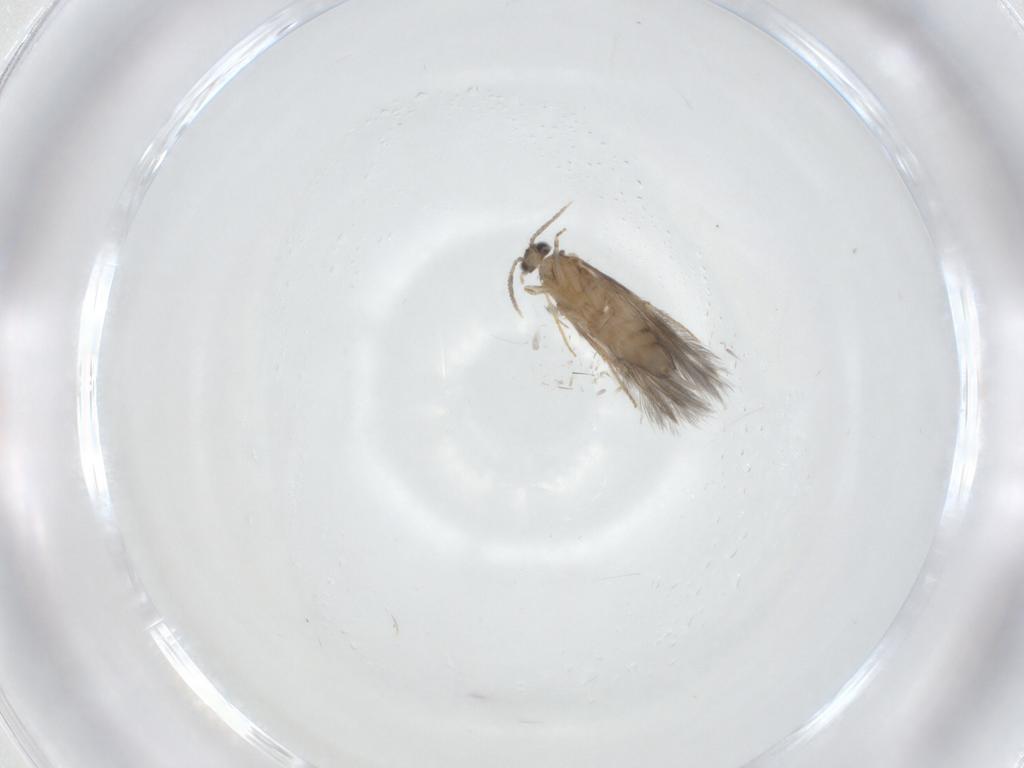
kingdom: Animalia
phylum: Arthropoda
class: Insecta
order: Trichoptera
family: Hydroptilidae
